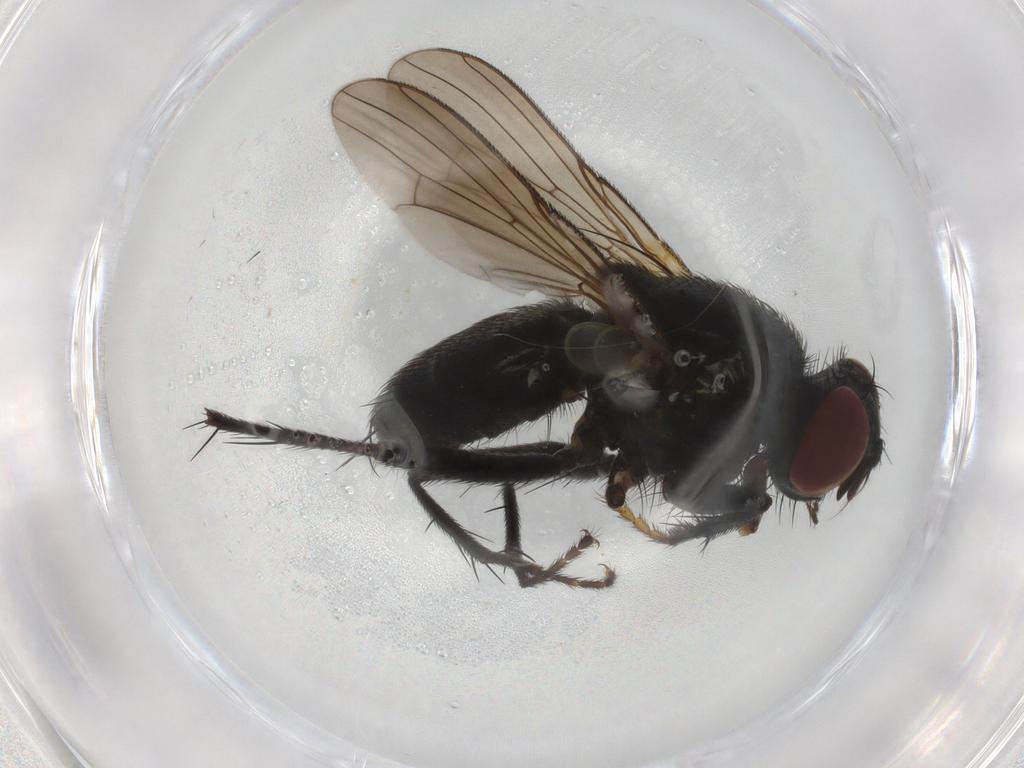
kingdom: Animalia
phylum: Arthropoda
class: Insecta
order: Diptera
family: Muscidae
